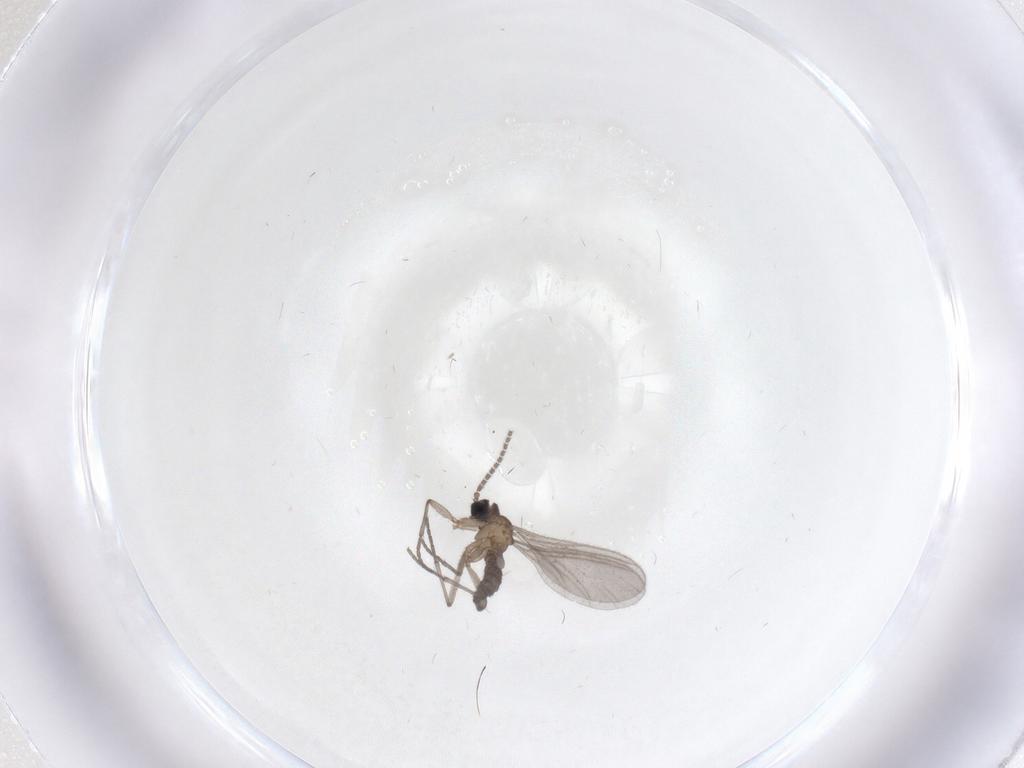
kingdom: Animalia
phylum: Arthropoda
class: Insecta
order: Diptera
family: Sciaridae
